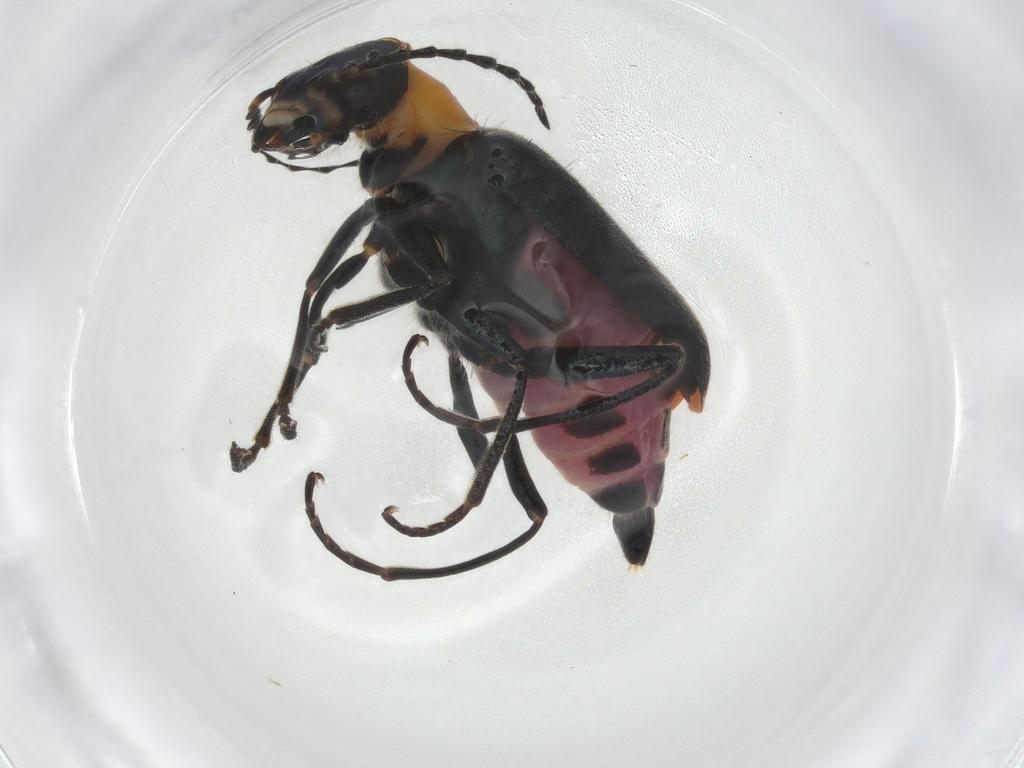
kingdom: Animalia
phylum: Arthropoda
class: Insecta
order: Coleoptera
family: Melyridae
